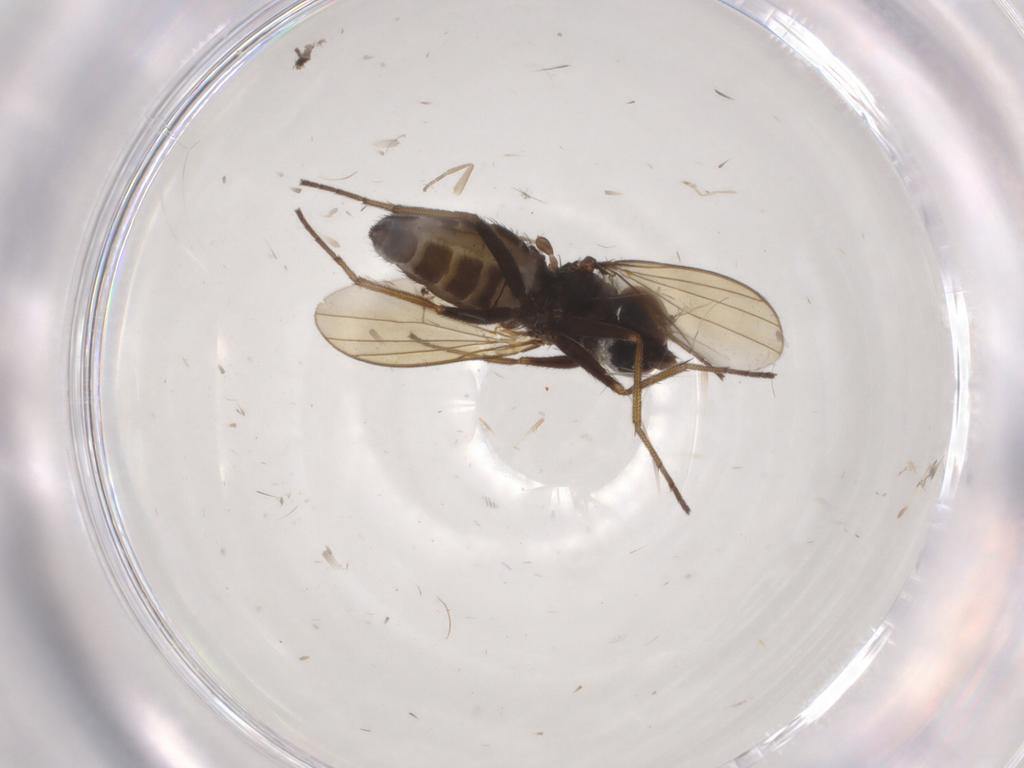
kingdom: Animalia
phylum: Arthropoda
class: Insecta
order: Diptera
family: Dolichopodidae
